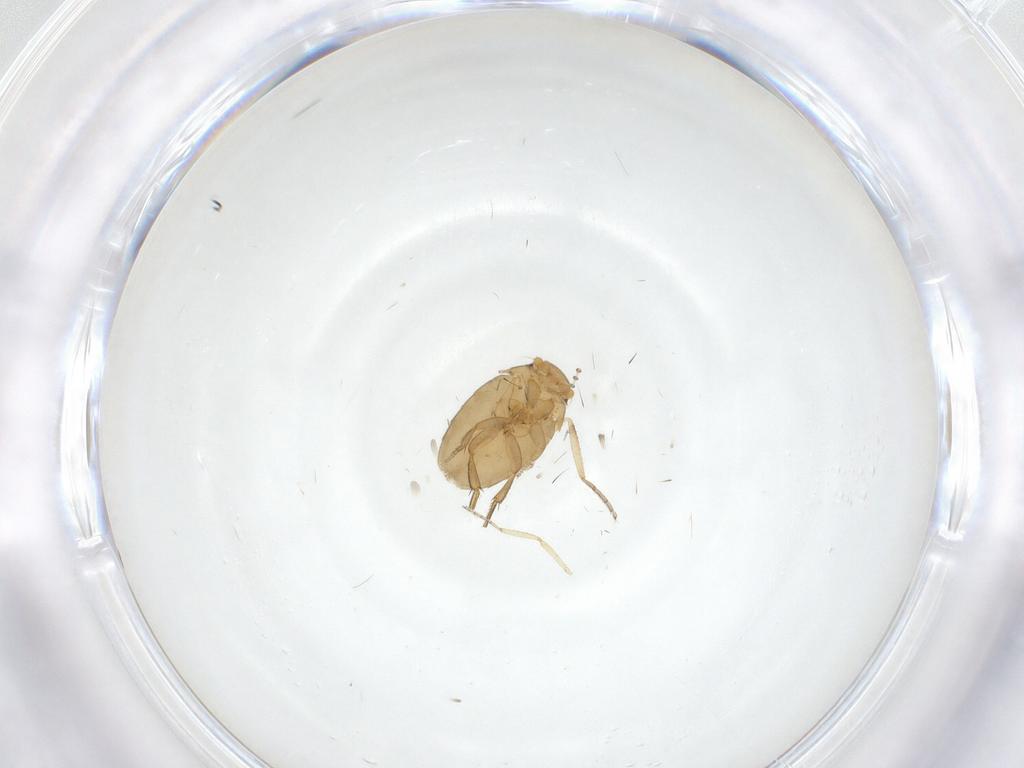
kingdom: Animalia
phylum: Arthropoda
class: Insecta
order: Diptera
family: Ceratopogonidae
